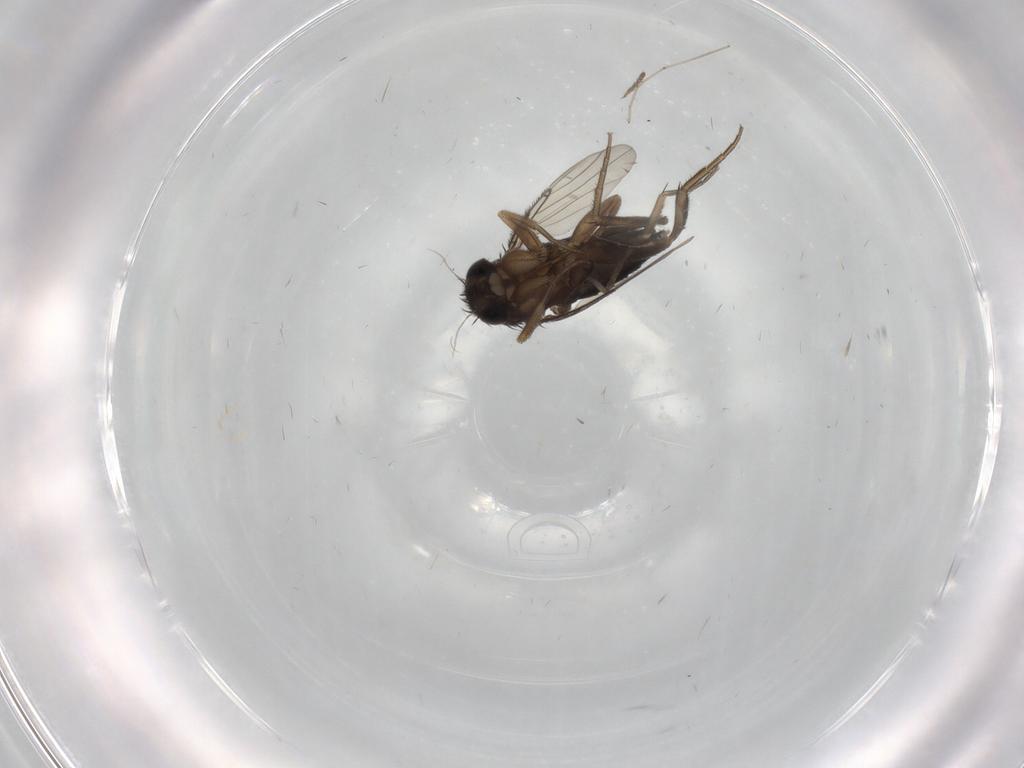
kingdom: Animalia
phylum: Arthropoda
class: Insecta
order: Diptera
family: Phoridae
